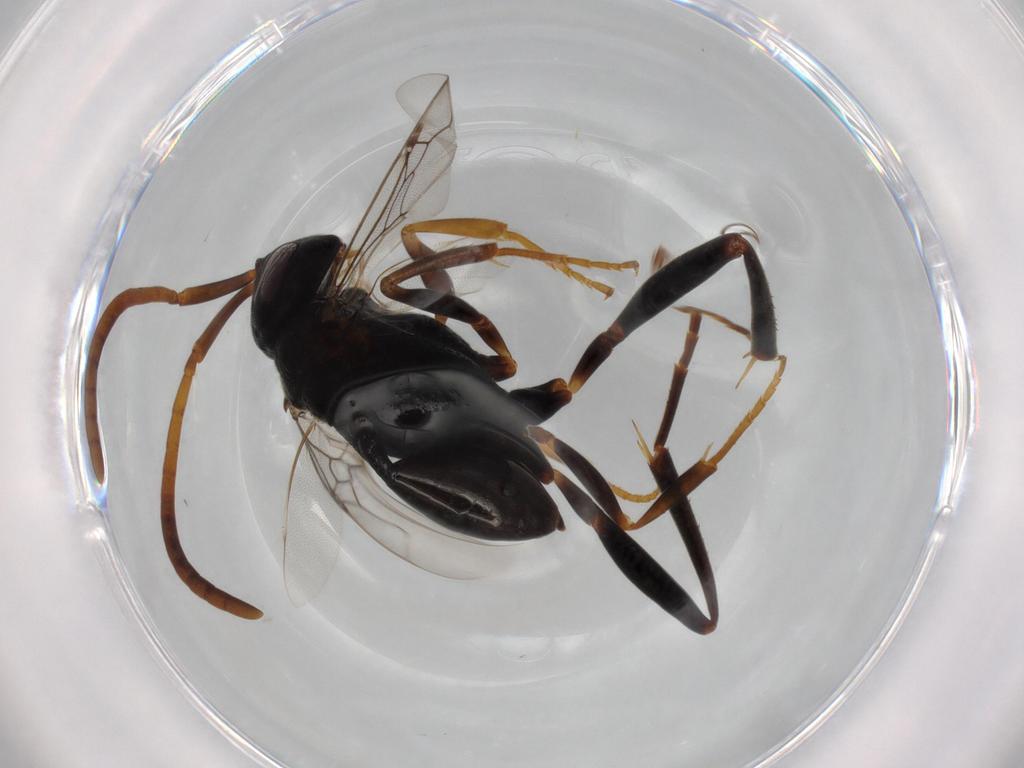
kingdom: Animalia
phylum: Arthropoda
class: Insecta
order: Hymenoptera
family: Evaniidae
